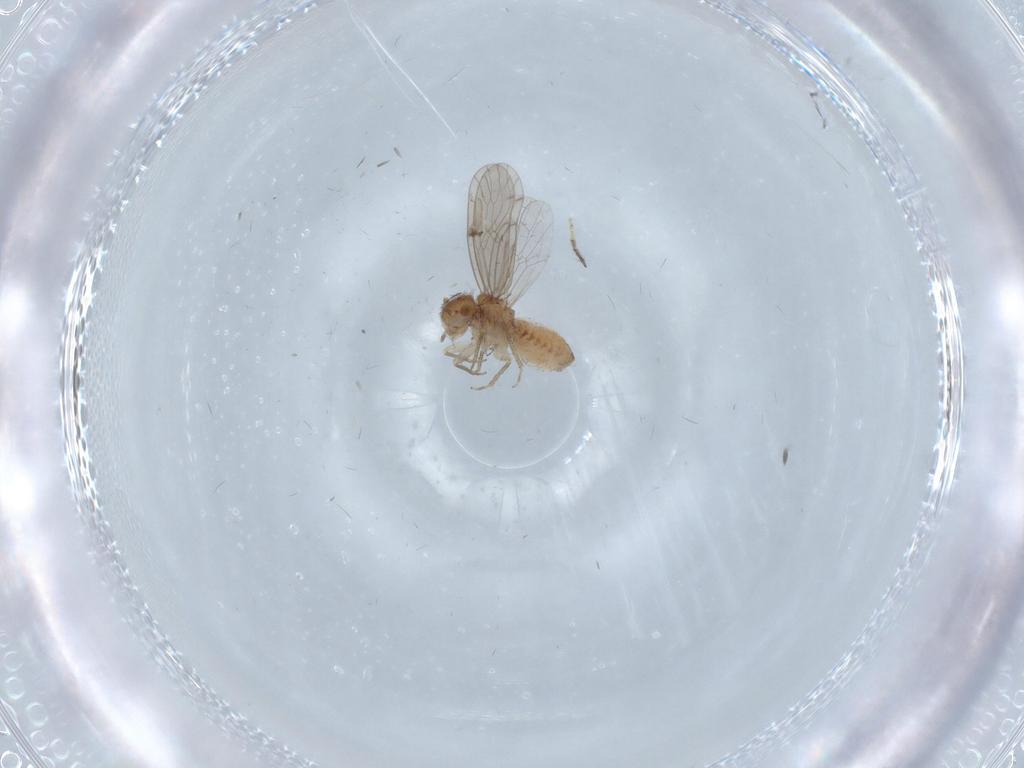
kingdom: Animalia
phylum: Arthropoda
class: Insecta
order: Psocodea
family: Ectopsocidae
